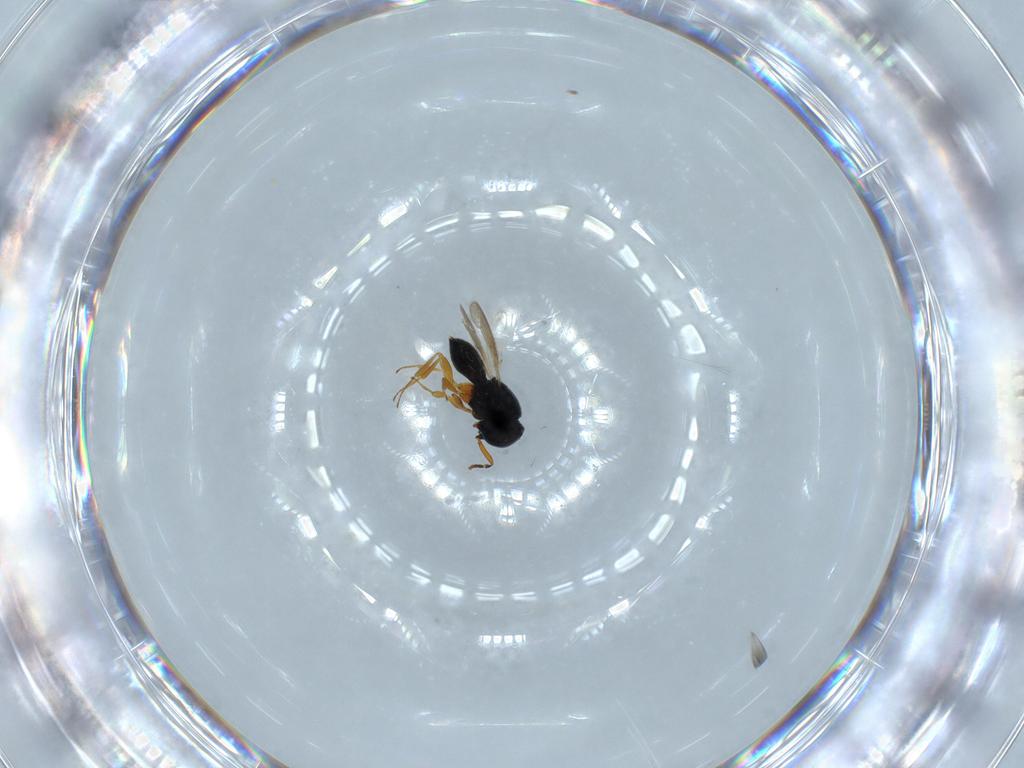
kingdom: Animalia
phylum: Arthropoda
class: Insecta
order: Hymenoptera
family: Scelionidae
